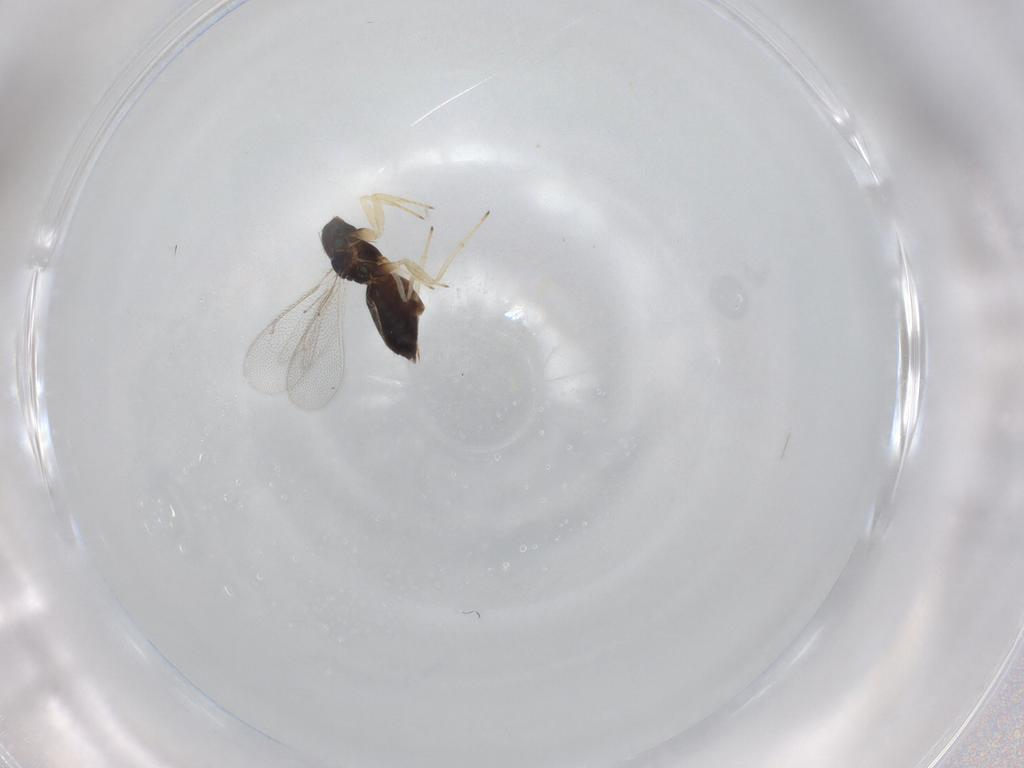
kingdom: Animalia
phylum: Arthropoda
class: Insecta
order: Hymenoptera
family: Eulophidae
